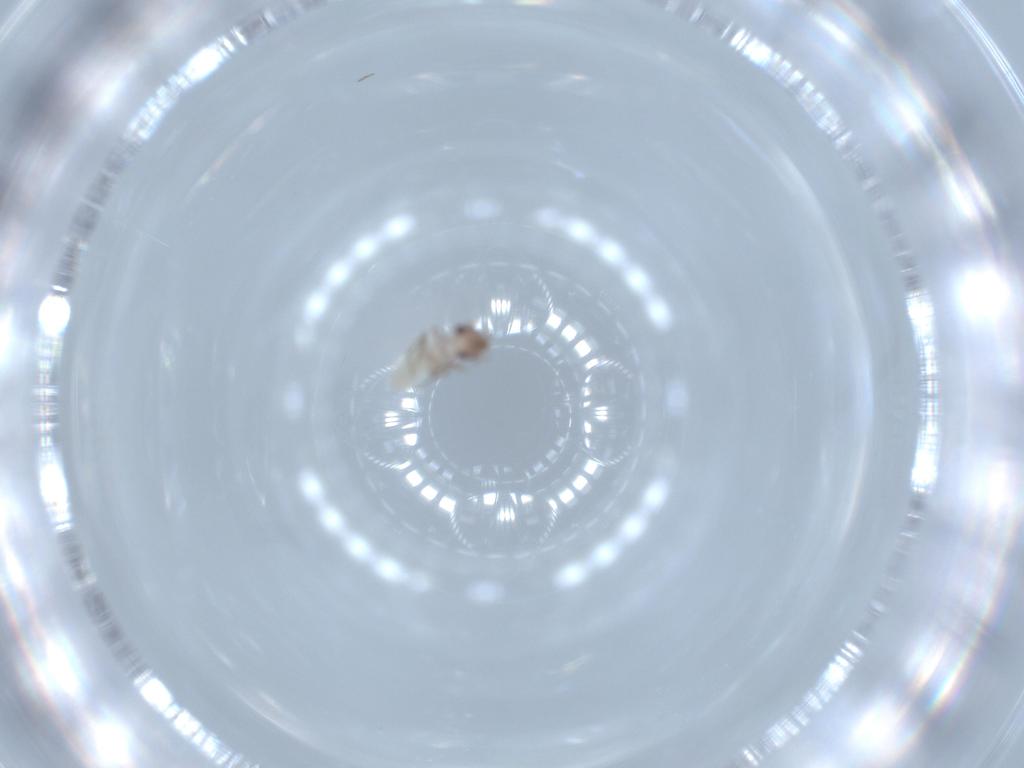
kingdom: Animalia
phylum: Arthropoda
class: Insecta
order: Psocodea
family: Lepidopsocidae
